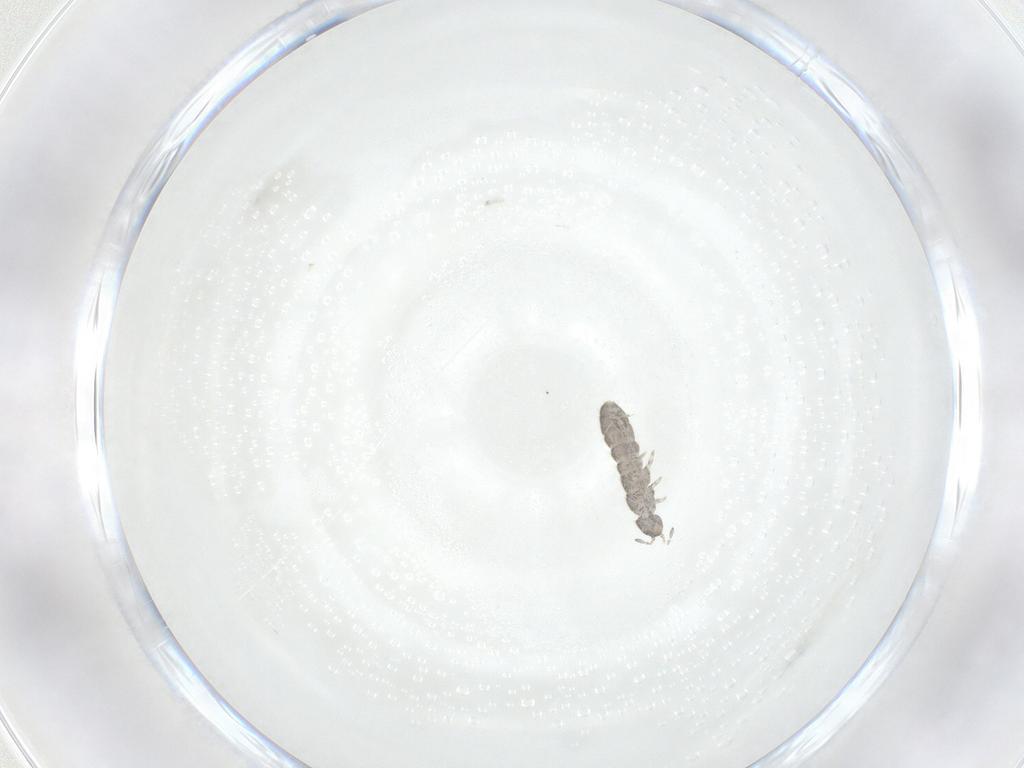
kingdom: Animalia
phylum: Arthropoda
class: Collembola
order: Entomobryomorpha
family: Isotomidae
